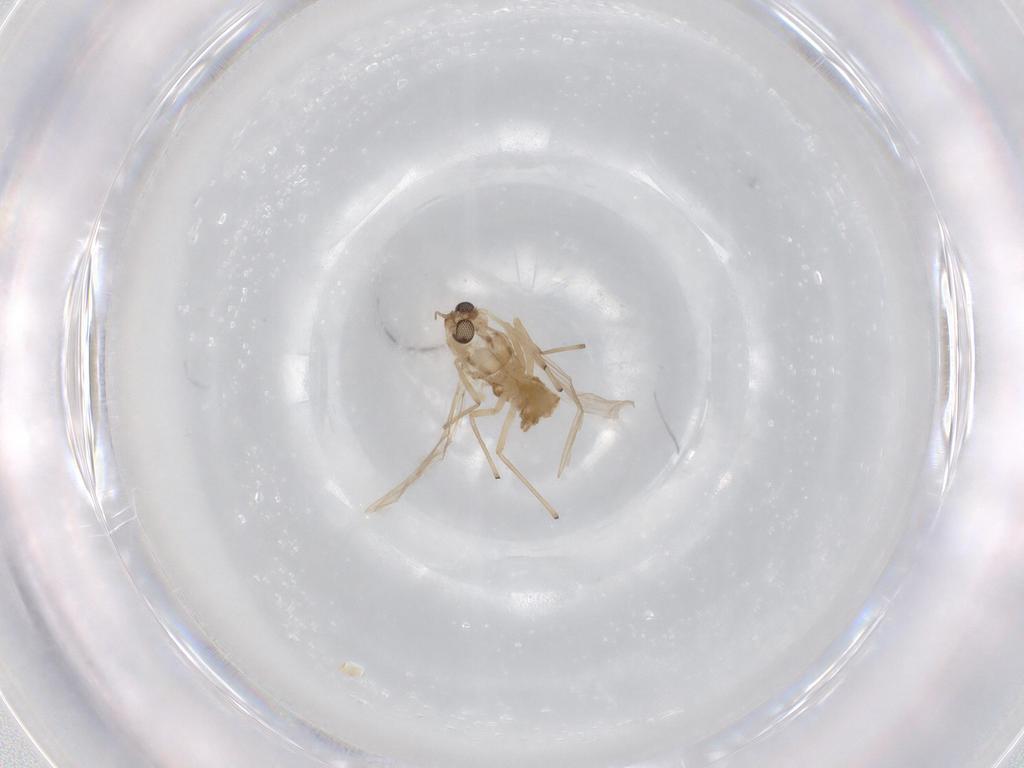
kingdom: Animalia
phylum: Arthropoda
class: Insecta
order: Diptera
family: Chironomidae
